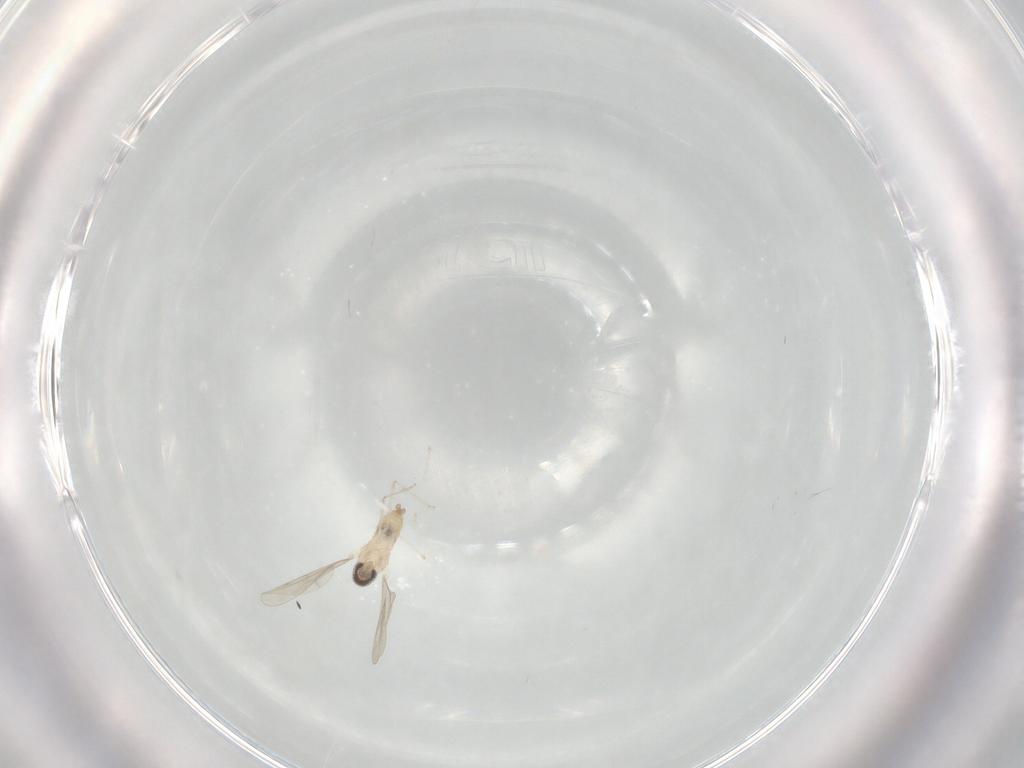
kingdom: Animalia
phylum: Arthropoda
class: Insecta
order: Diptera
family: Cecidomyiidae
